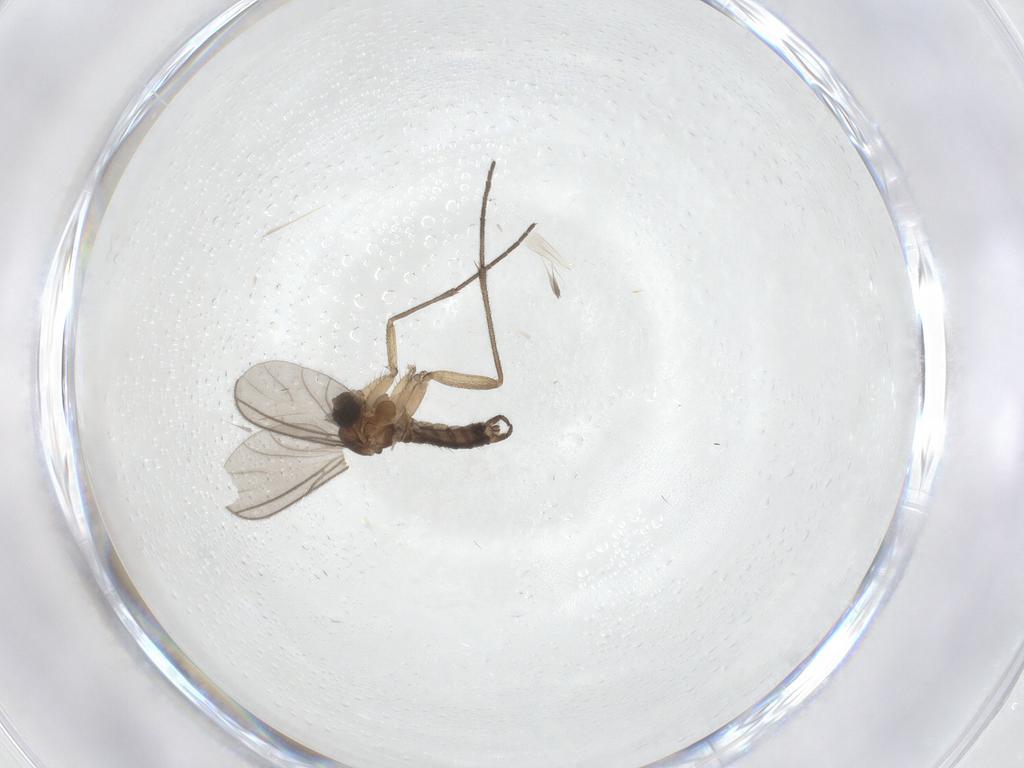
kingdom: Animalia
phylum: Arthropoda
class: Insecta
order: Diptera
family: Sciaridae
